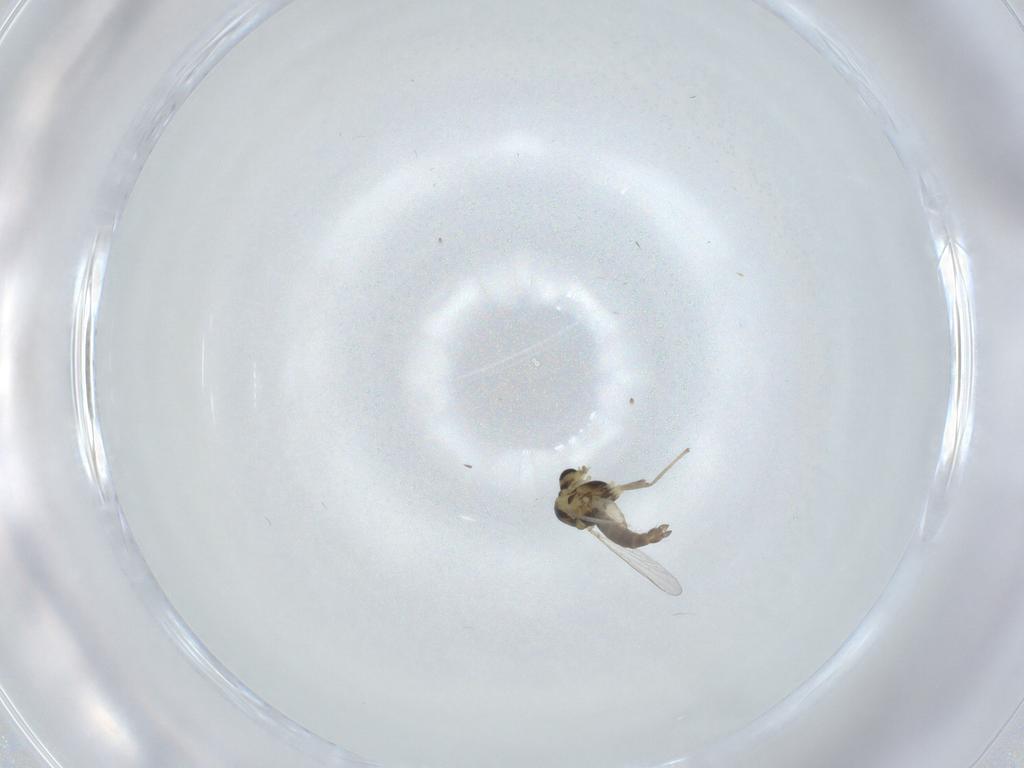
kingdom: Animalia
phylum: Arthropoda
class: Insecta
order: Diptera
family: Chironomidae
